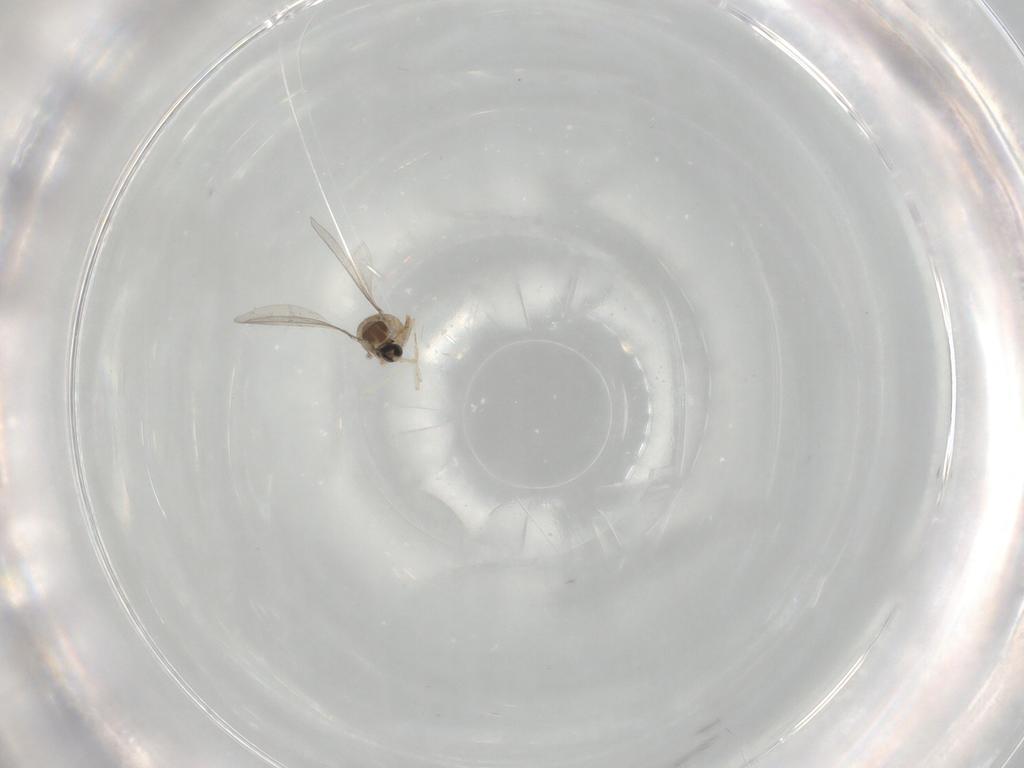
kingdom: Animalia
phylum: Arthropoda
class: Insecta
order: Diptera
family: Cecidomyiidae
